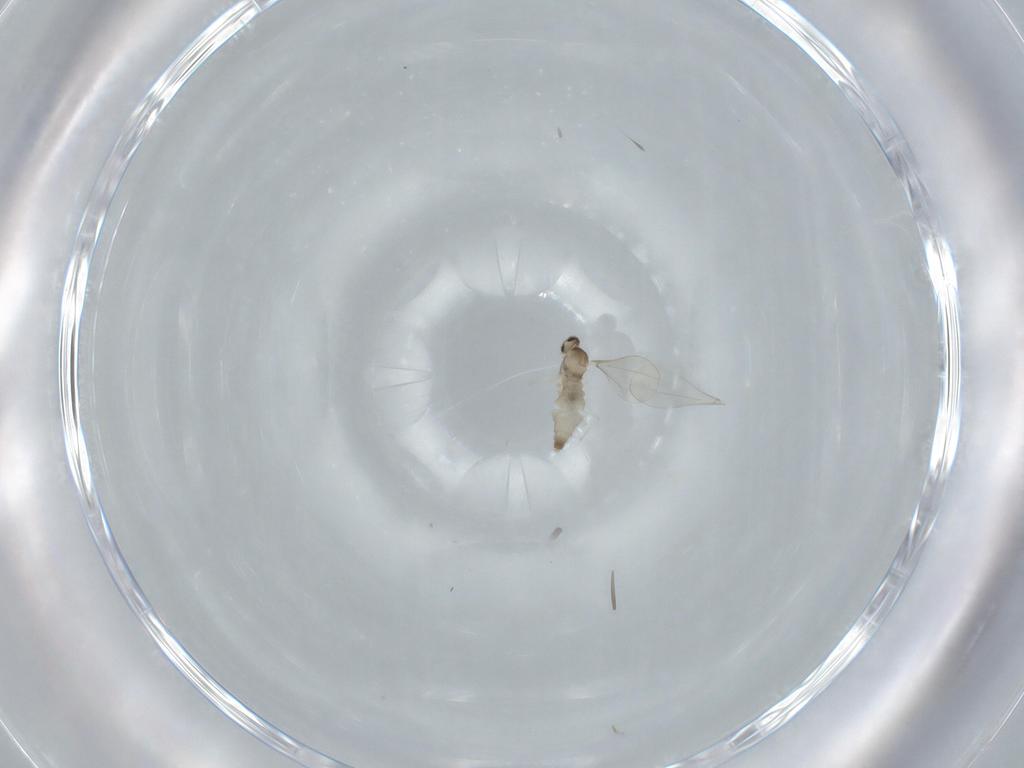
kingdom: Animalia
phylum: Arthropoda
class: Insecta
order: Diptera
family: Cecidomyiidae
